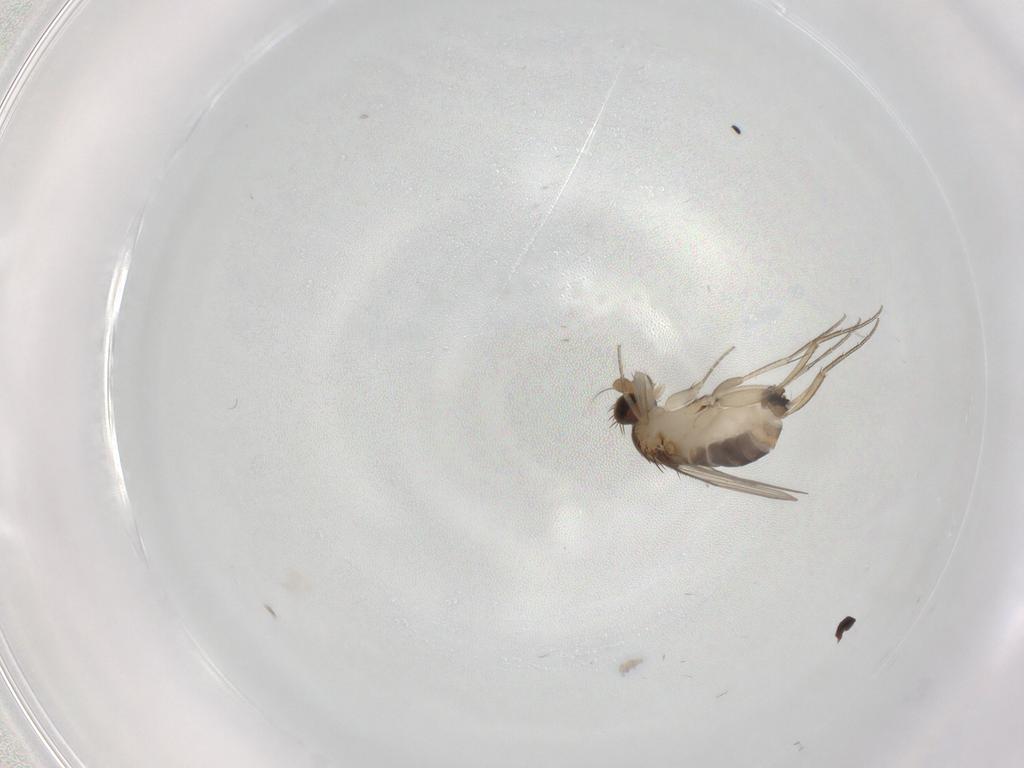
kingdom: Animalia
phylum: Arthropoda
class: Insecta
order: Diptera
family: Phoridae
